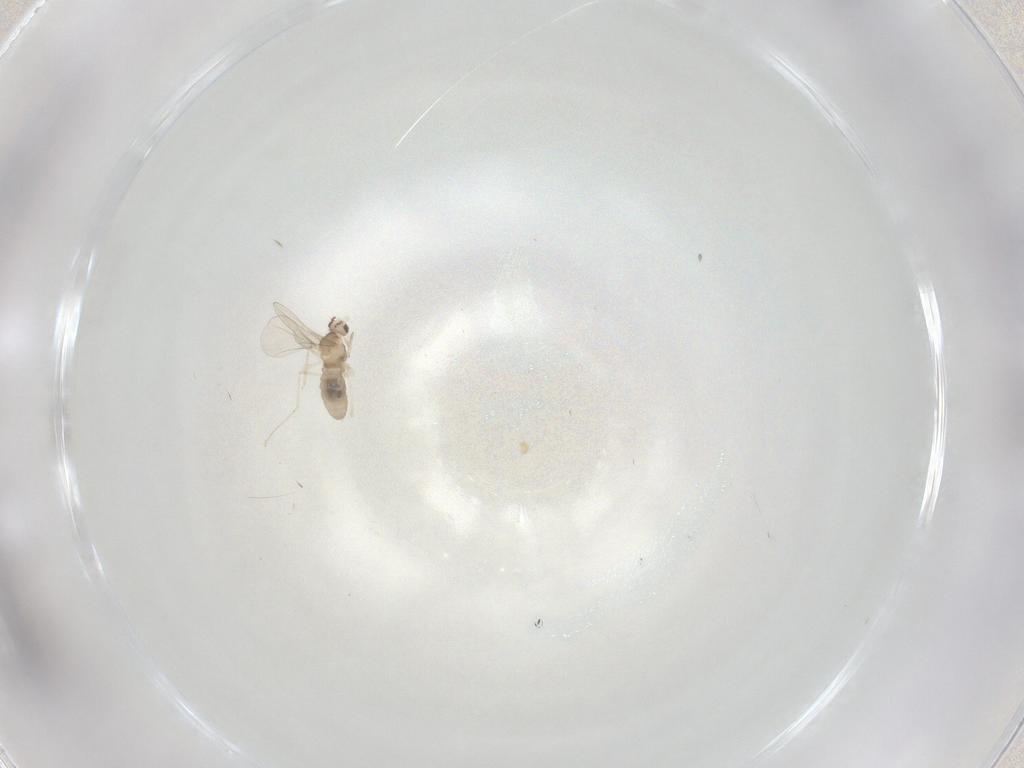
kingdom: Animalia
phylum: Arthropoda
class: Insecta
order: Diptera
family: Cecidomyiidae
